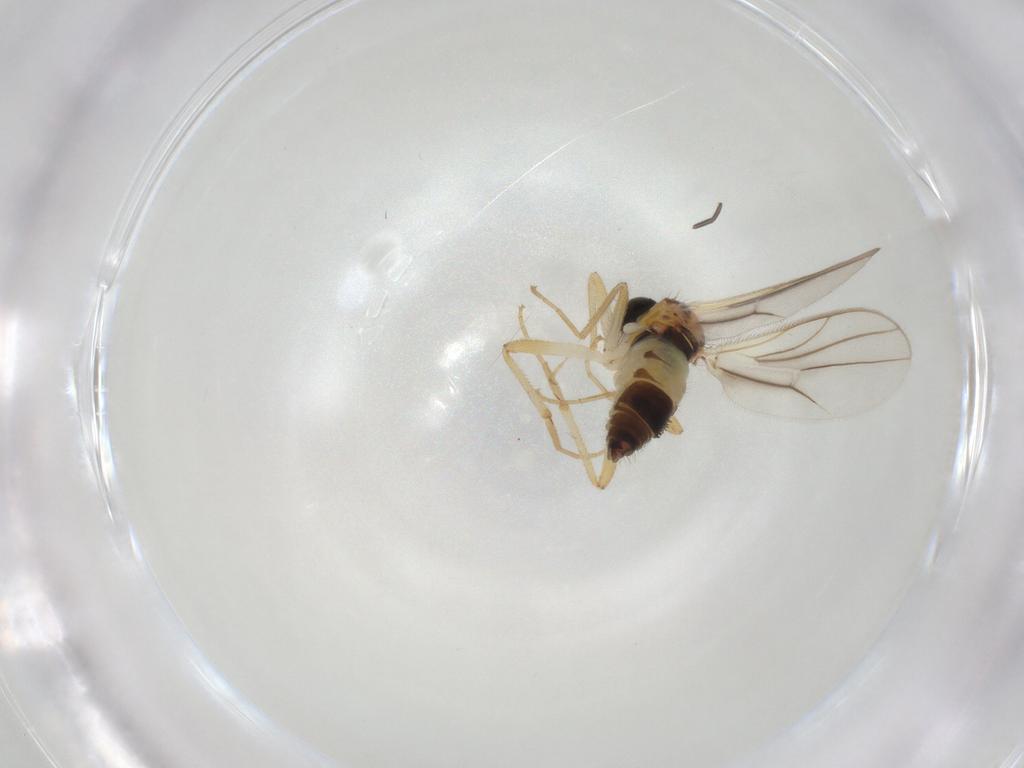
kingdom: Animalia
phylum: Arthropoda
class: Insecta
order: Diptera
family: Hybotidae
